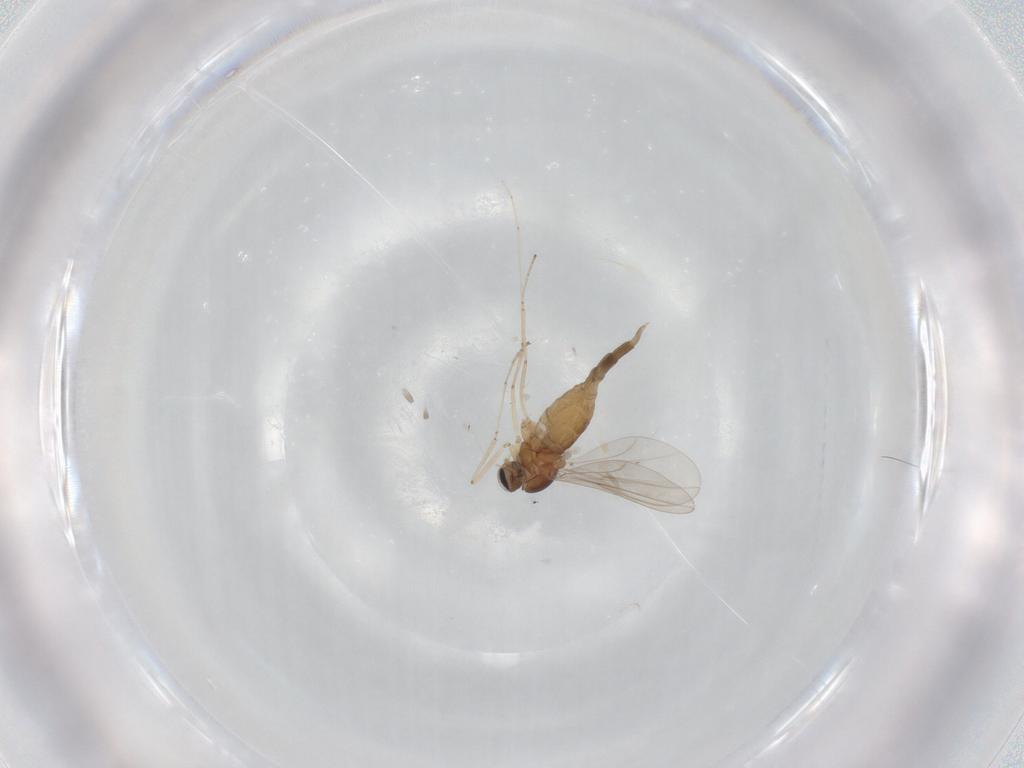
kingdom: Animalia
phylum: Arthropoda
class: Insecta
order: Diptera
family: Cecidomyiidae
